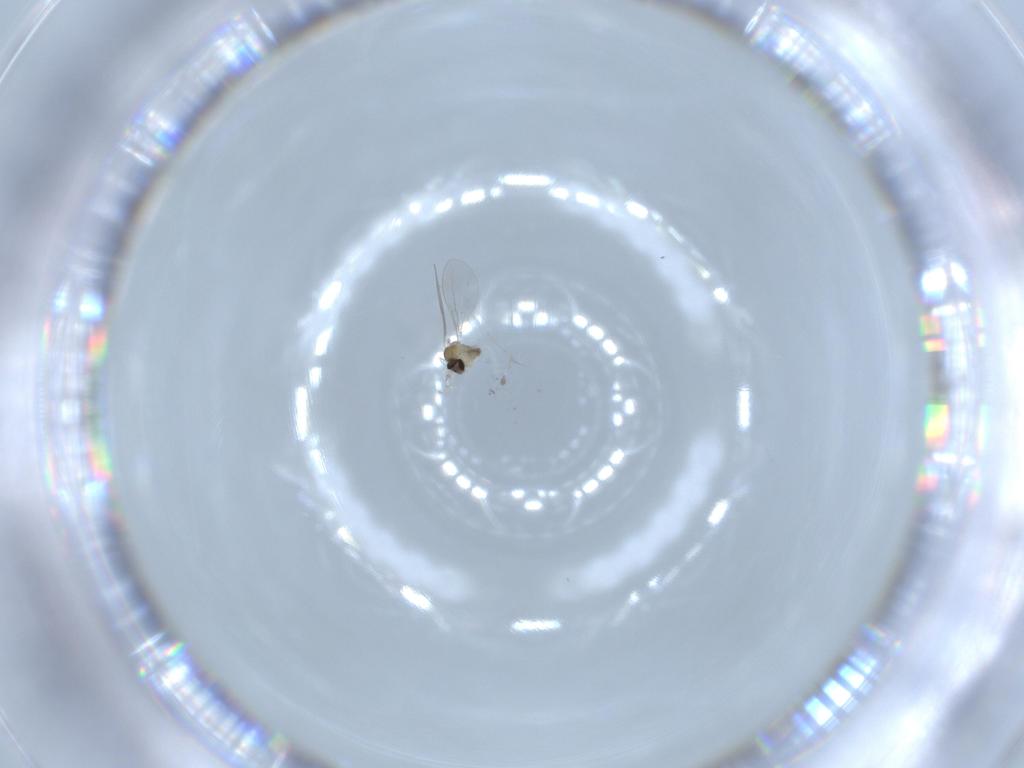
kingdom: Animalia
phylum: Arthropoda
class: Insecta
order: Diptera
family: Cecidomyiidae
